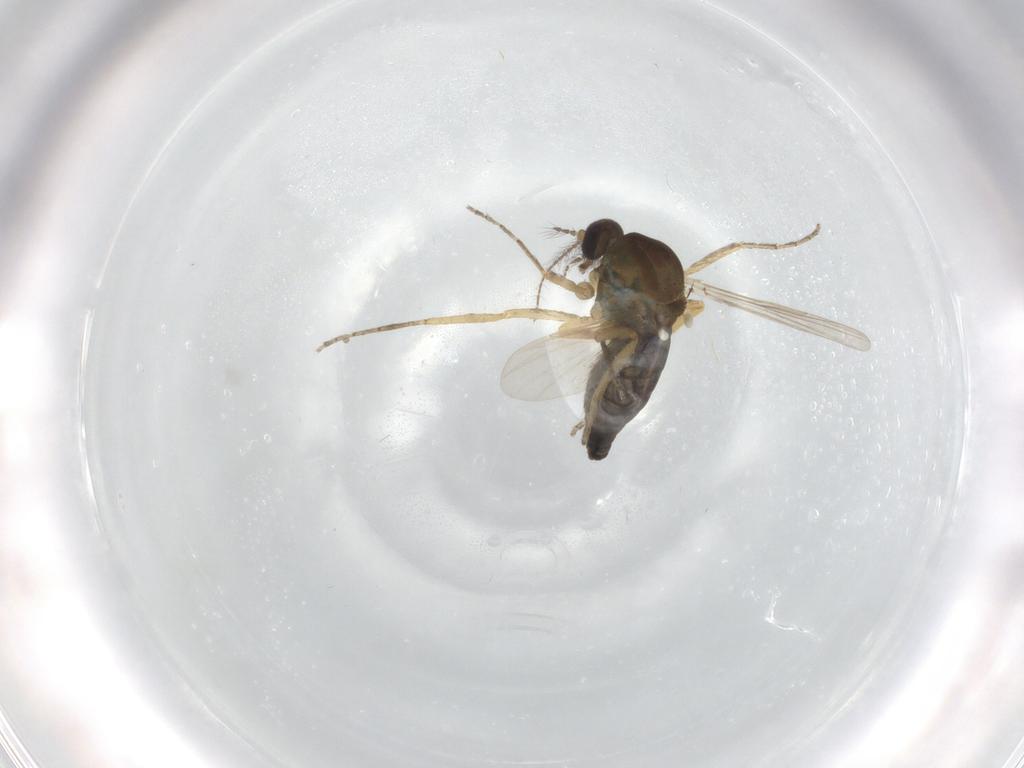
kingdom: Animalia
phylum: Arthropoda
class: Insecta
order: Diptera
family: Ceratopogonidae
